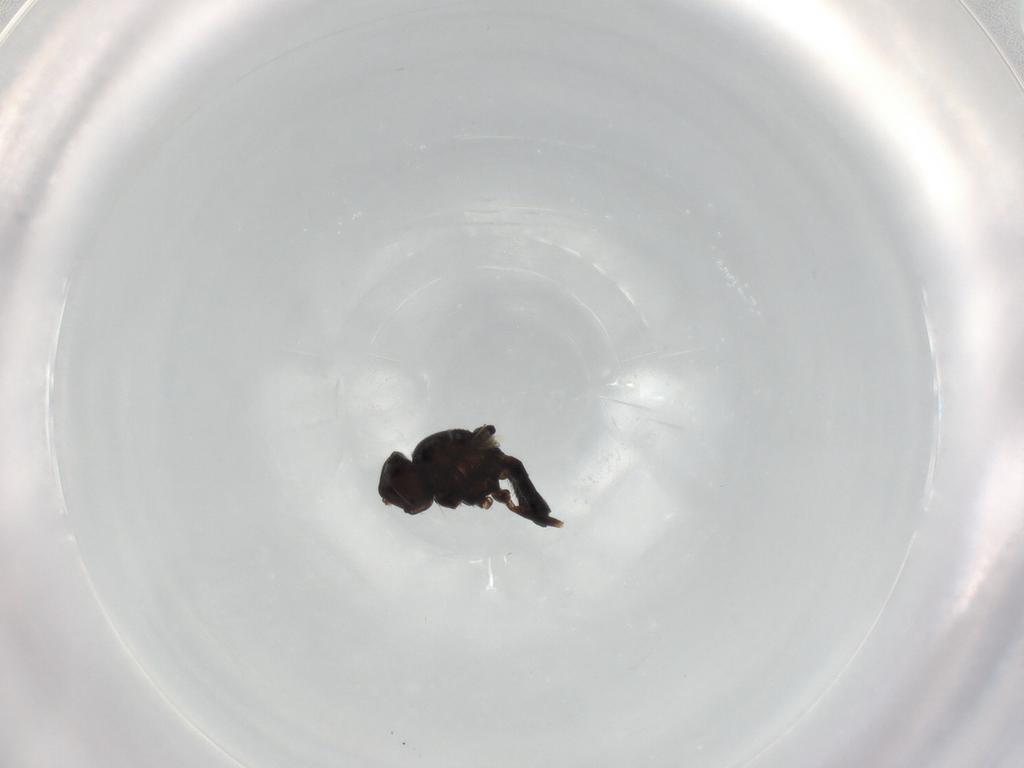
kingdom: Animalia
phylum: Arthropoda
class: Insecta
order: Diptera
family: Chloropidae
